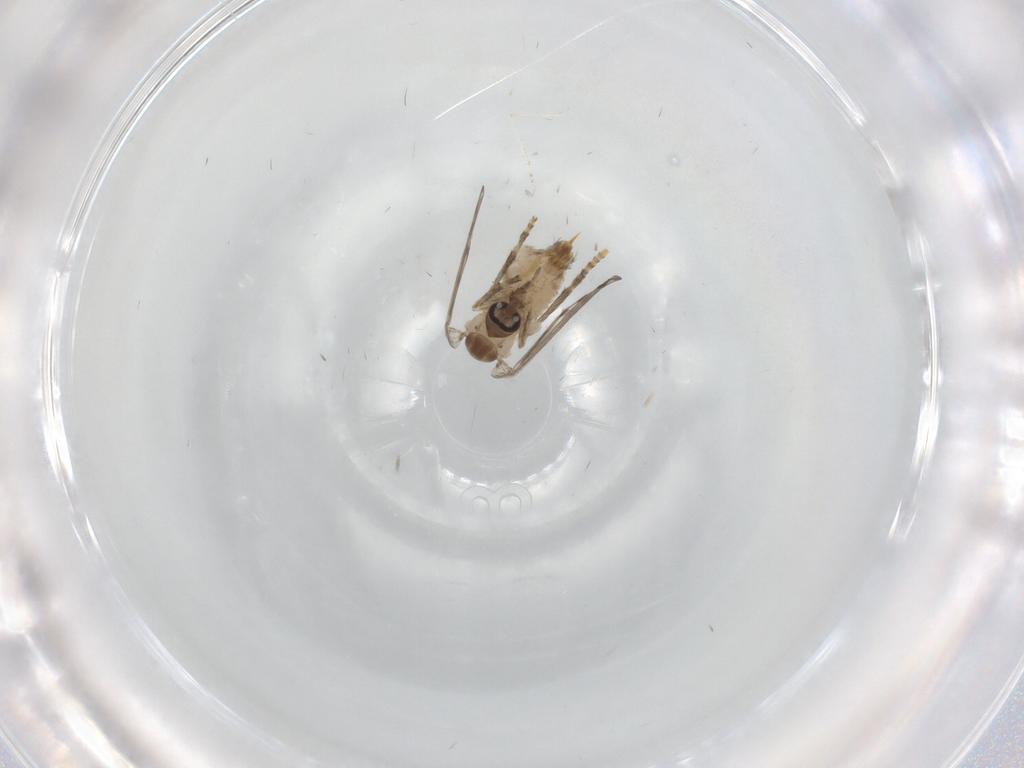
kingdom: Animalia
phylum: Arthropoda
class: Insecta
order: Diptera
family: Psychodidae
